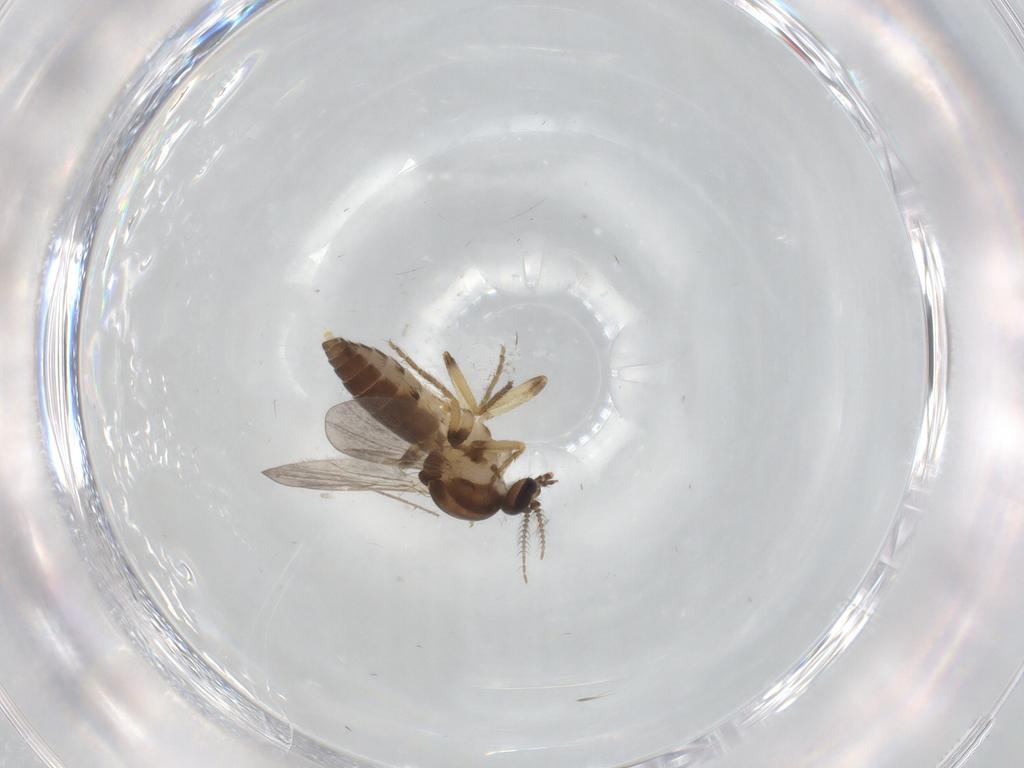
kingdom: Animalia
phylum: Arthropoda
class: Insecta
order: Diptera
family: Ceratopogonidae
